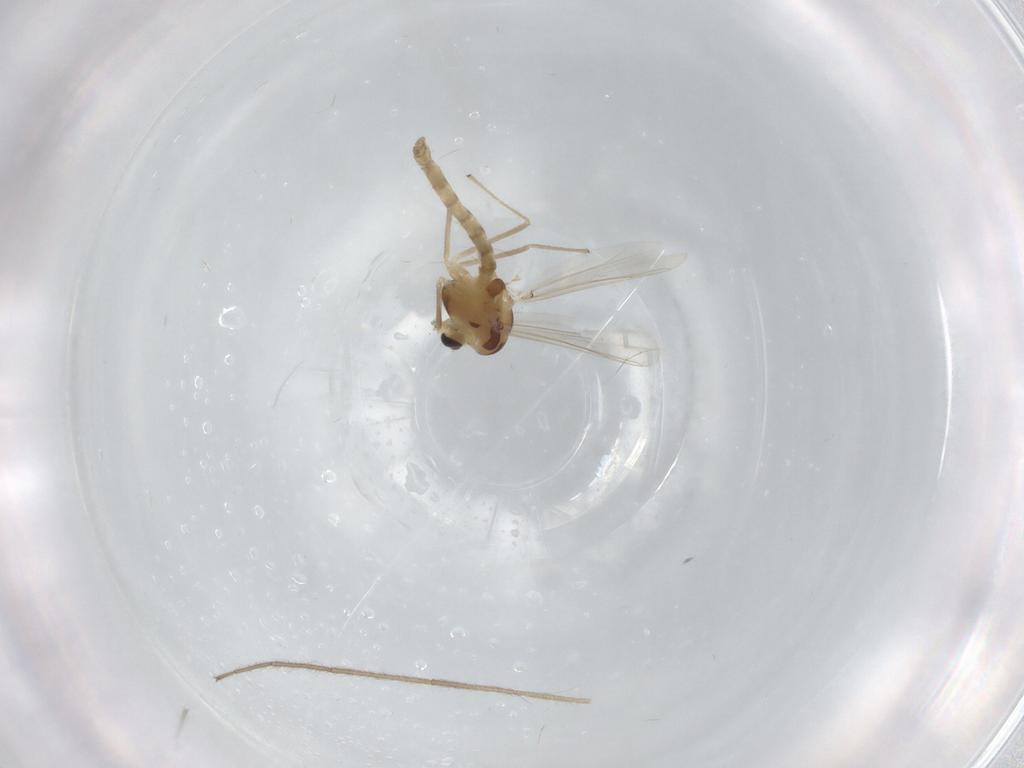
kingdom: Animalia
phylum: Arthropoda
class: Insecta
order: Diptera
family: Chironomidae
